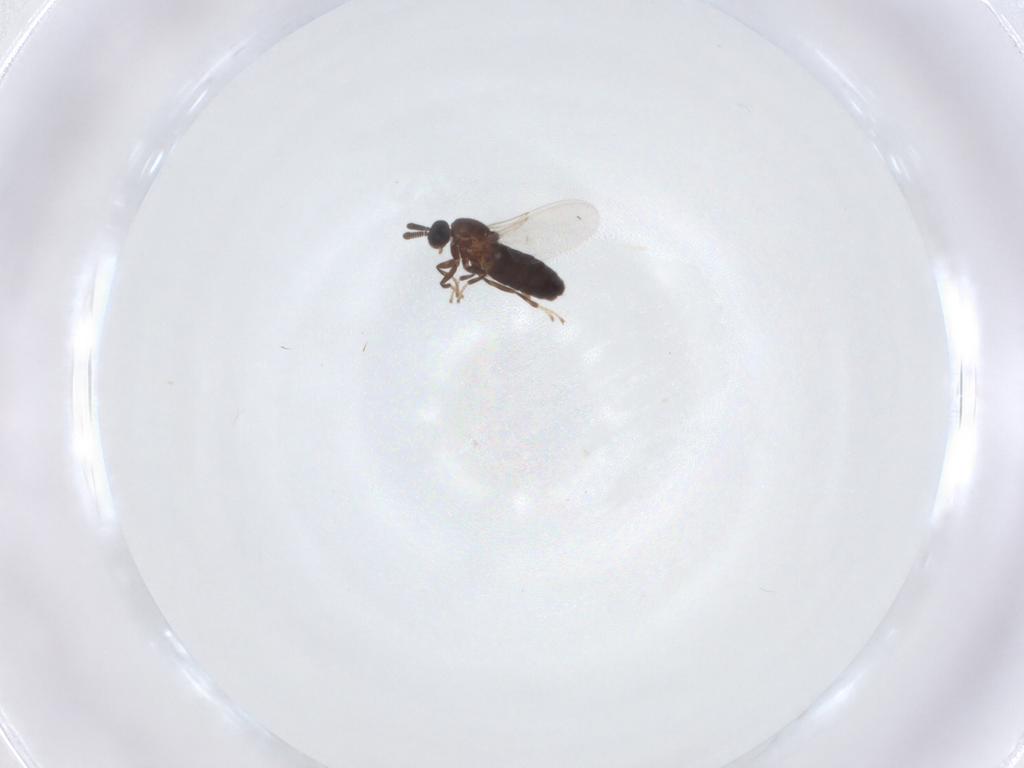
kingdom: Animalia
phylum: Arthropoda
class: Insecta
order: Diptera
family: Scatopsidae
